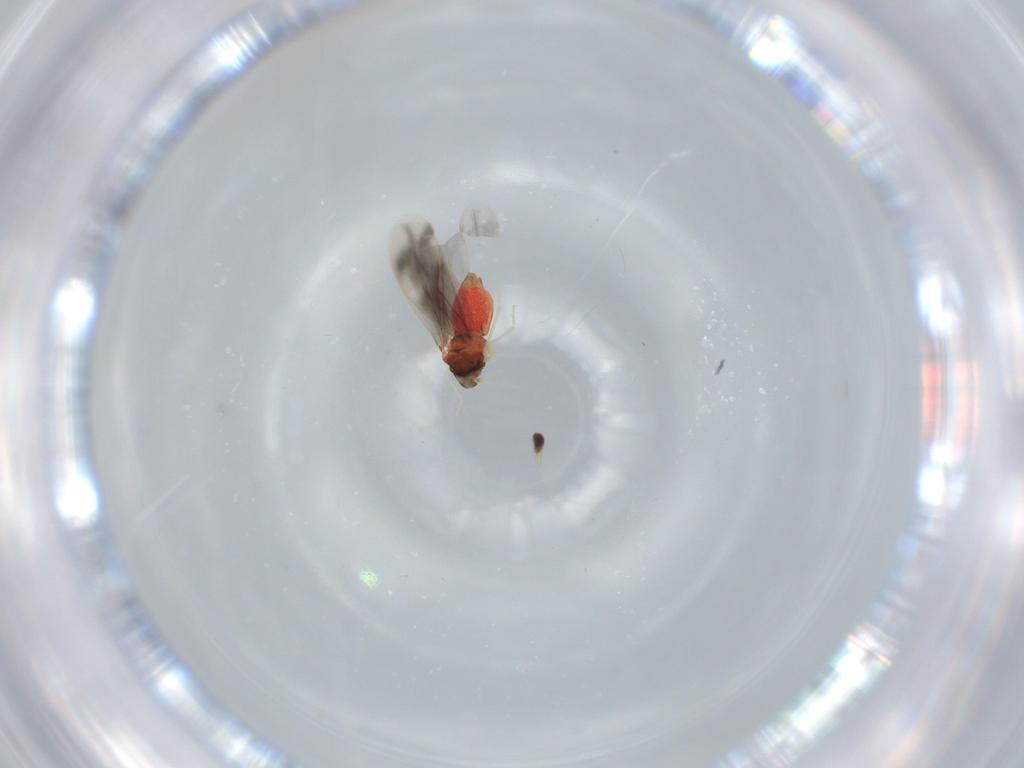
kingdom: Animalia
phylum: Arthropoda
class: Insecta
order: Hemiptera
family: Aleyrodidae
